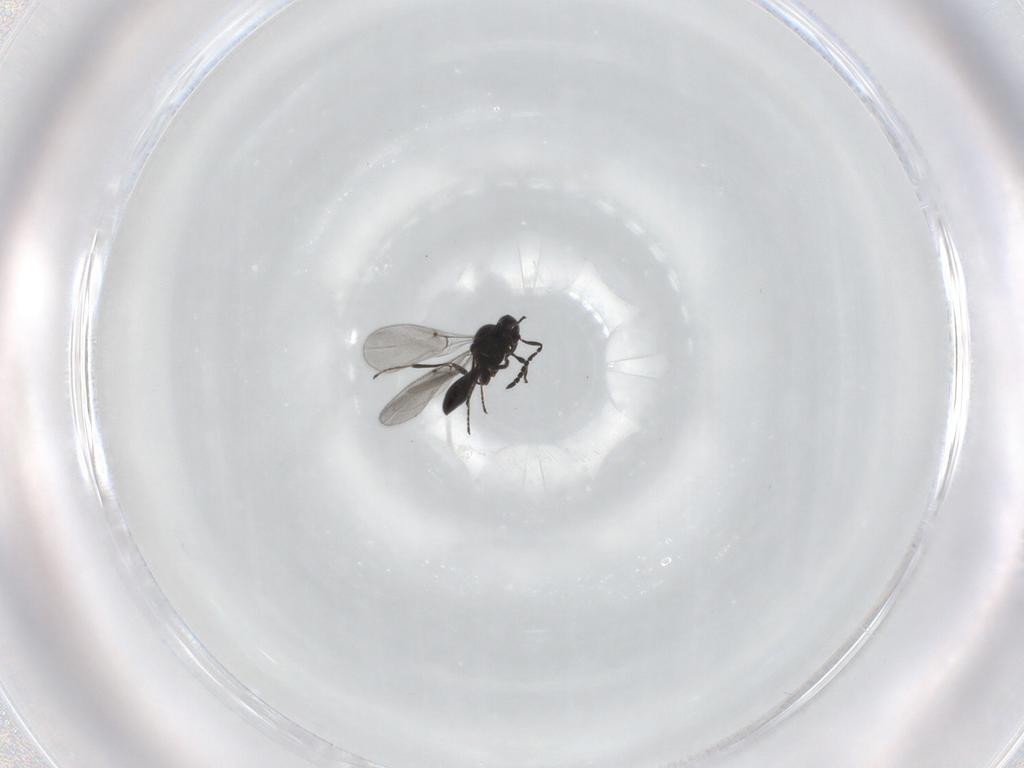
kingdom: Animalia
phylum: Arthropoda
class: Insecta
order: Hymenoptera
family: Platygastridae
